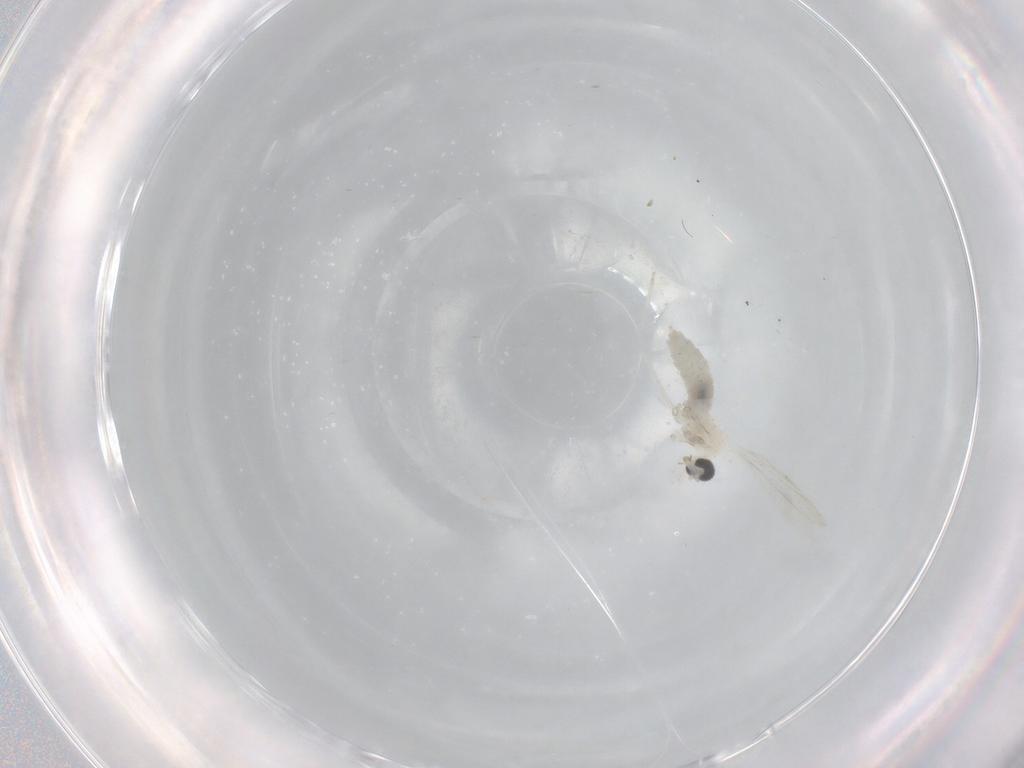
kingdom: Animalia
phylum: Arthropoda
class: Insecta
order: Diptera
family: Cecidomyiidae
